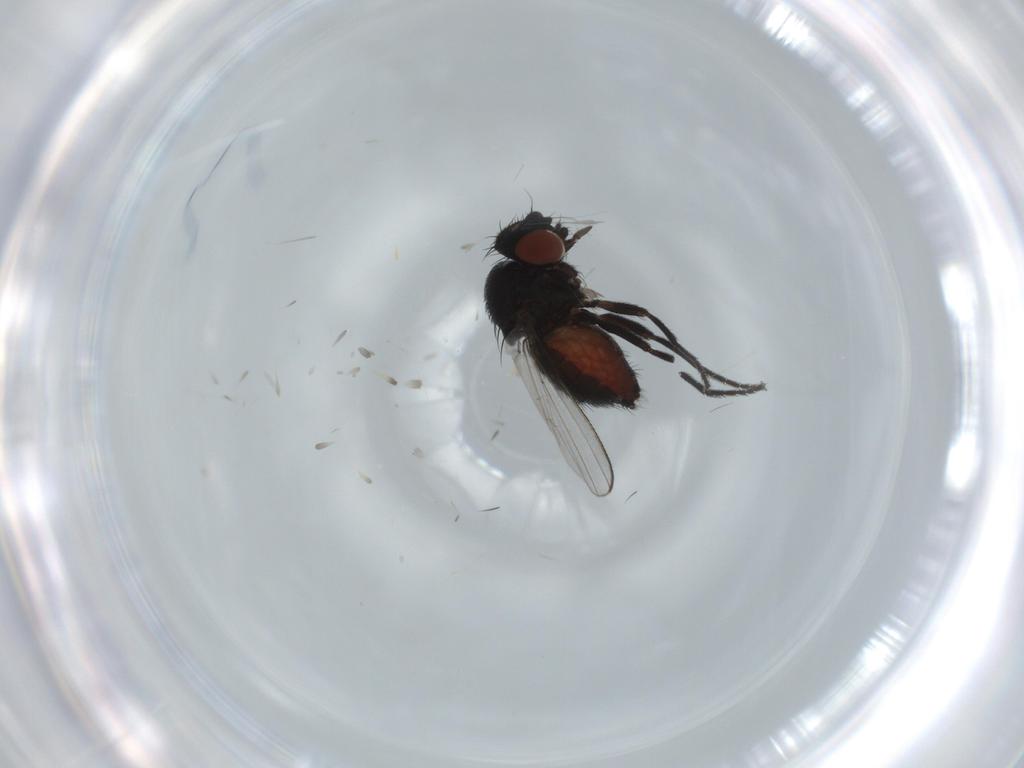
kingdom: Animalia
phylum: Arthropoda
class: Insecta
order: Diptera
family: Milichiidae
